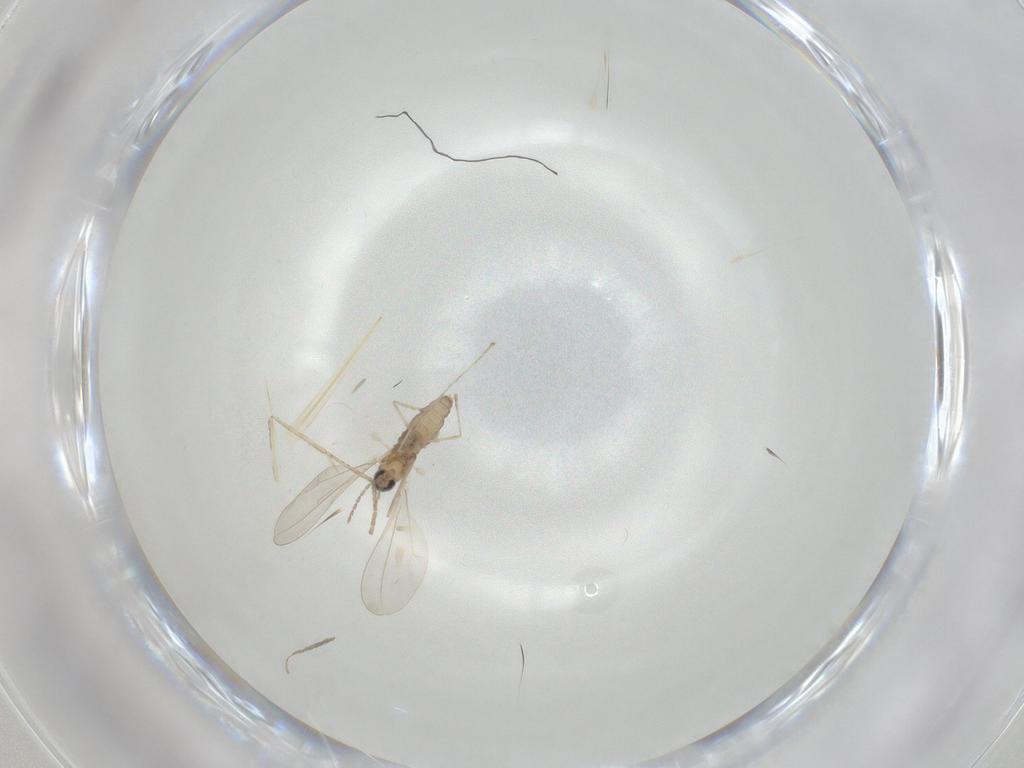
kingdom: Animalia
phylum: Arthropoda
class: Insecta
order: Diptera
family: Cecidomyiidae
